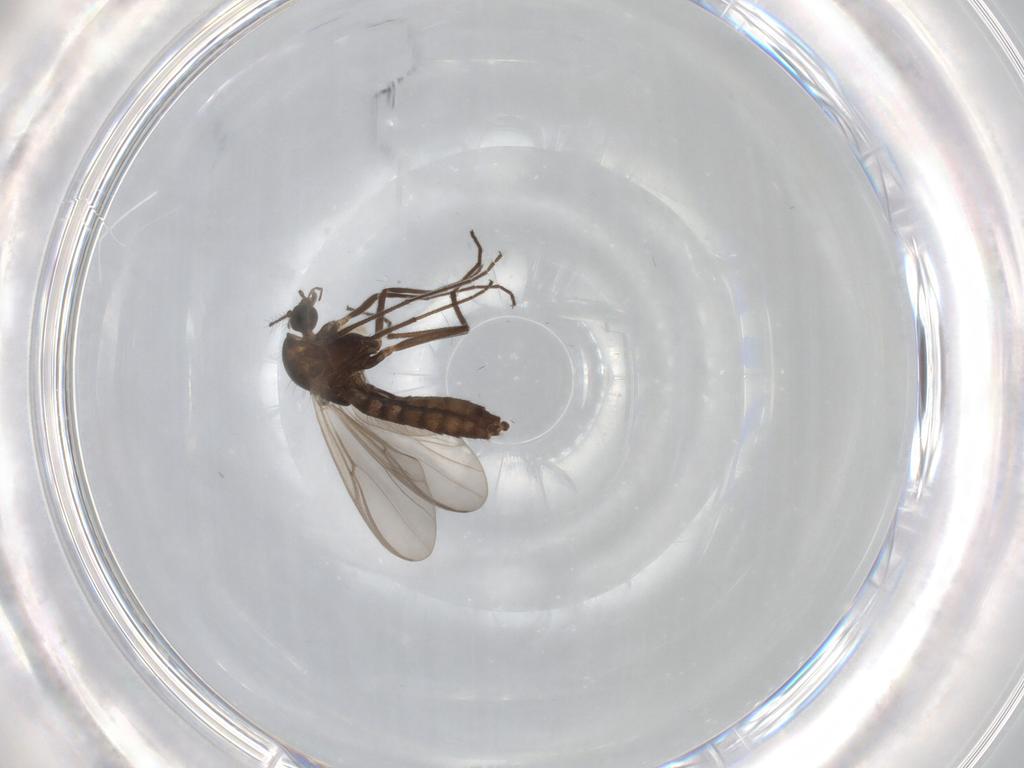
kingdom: Animalia
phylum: Arthropoda
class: Insecta
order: Diptera
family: Chironomidae
